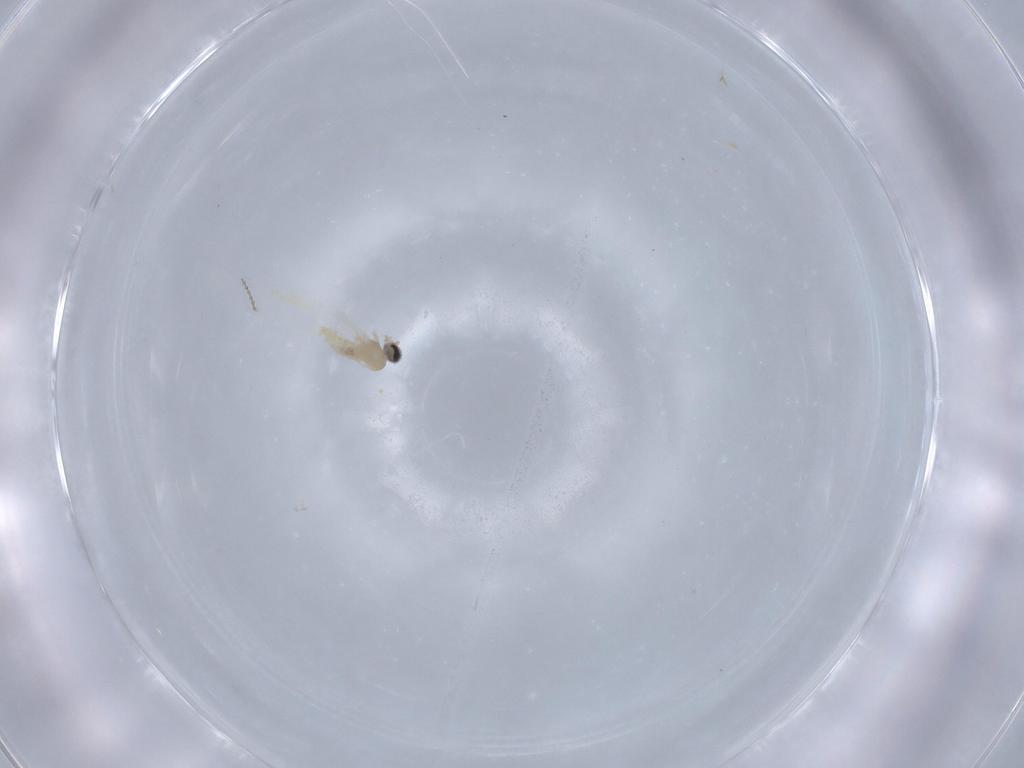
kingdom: Animalia
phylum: Arthropoda
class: Insecta
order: Diptera
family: Cecidomyiidae
